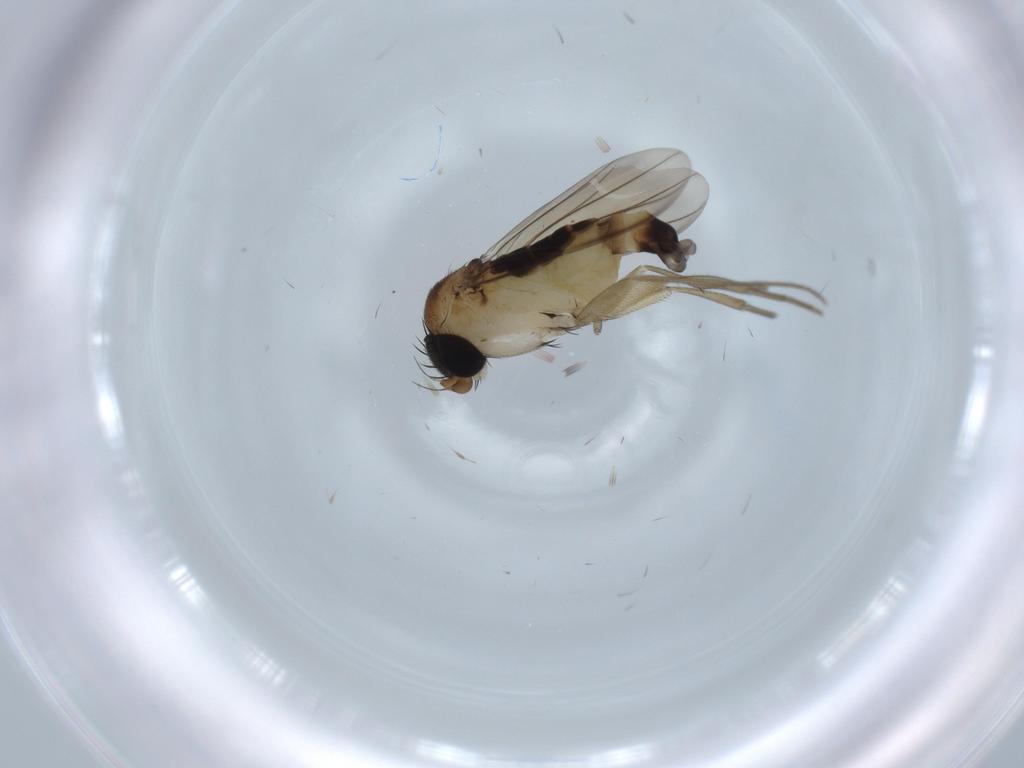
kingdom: Animalia
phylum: Arthropoda
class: Insecta
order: Diptera
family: Phoridae
